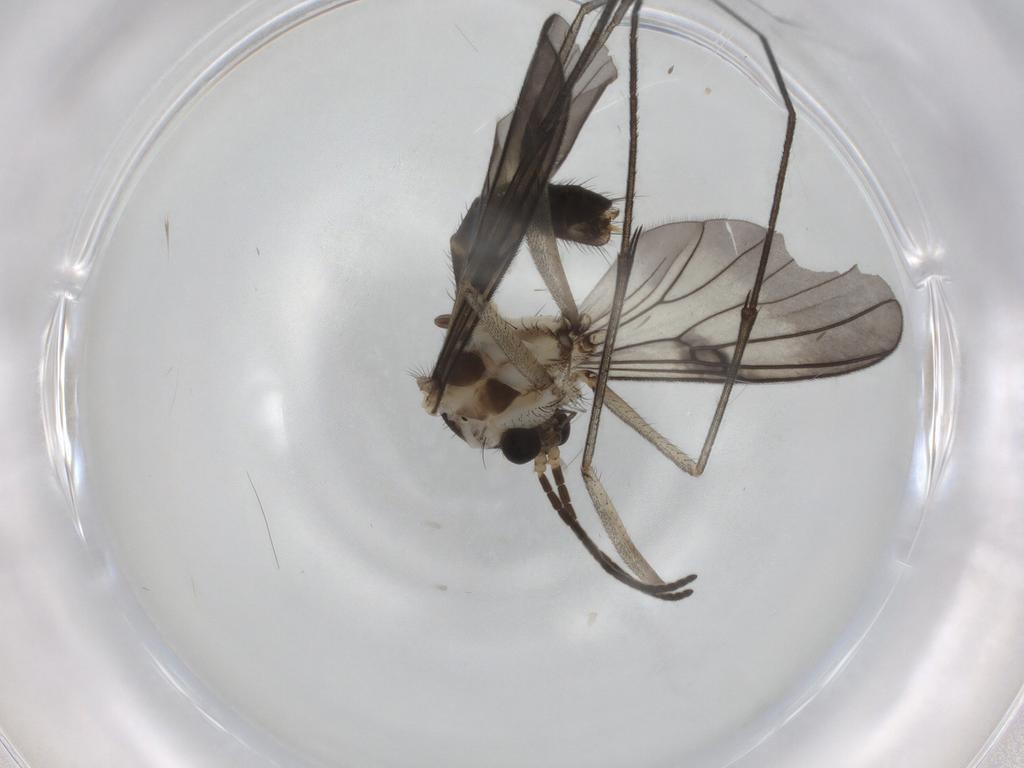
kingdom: Animalia
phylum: Arthropoda
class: Insecta
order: Diptera
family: Mycetophilidae
